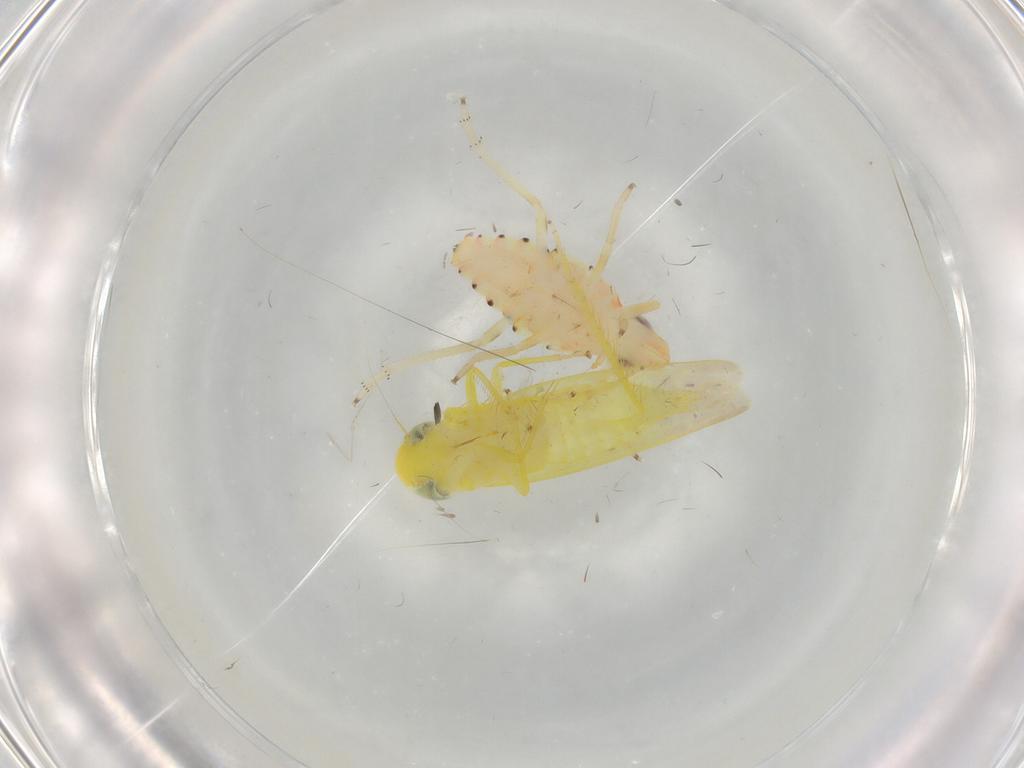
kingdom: Animalia
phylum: Arthropoda
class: Insecta
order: Hemiptera
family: Tropiduchidae
